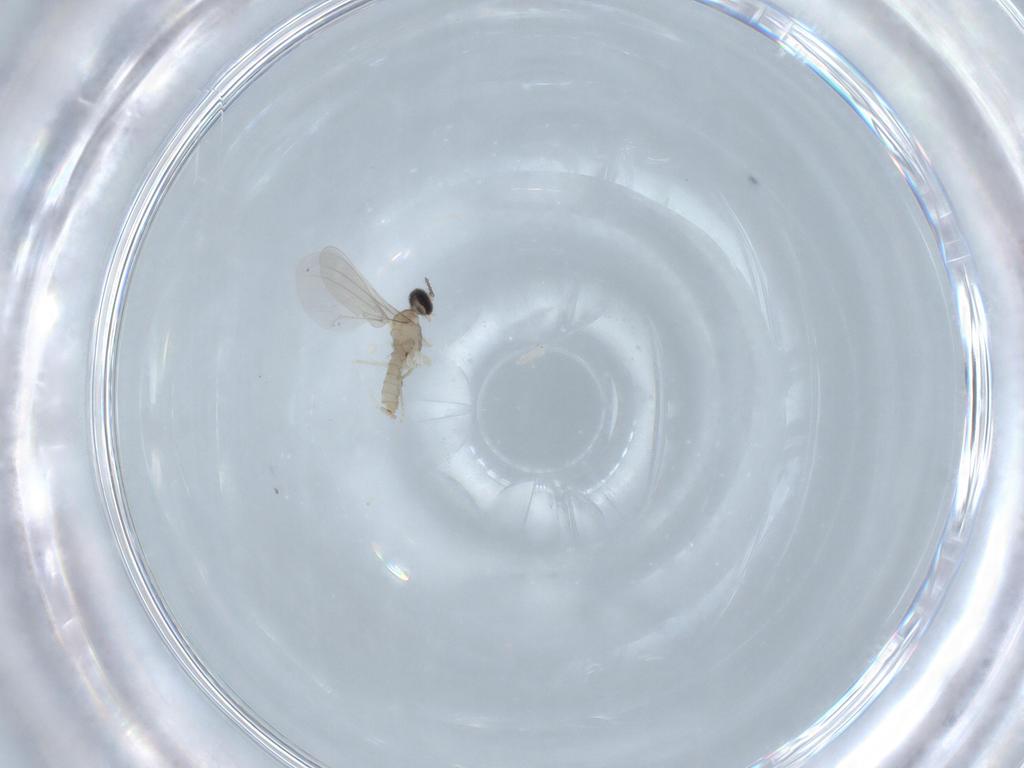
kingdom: Animalia
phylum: Arthropoda
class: Insecta
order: Diptera
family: Cecidomyiidae
